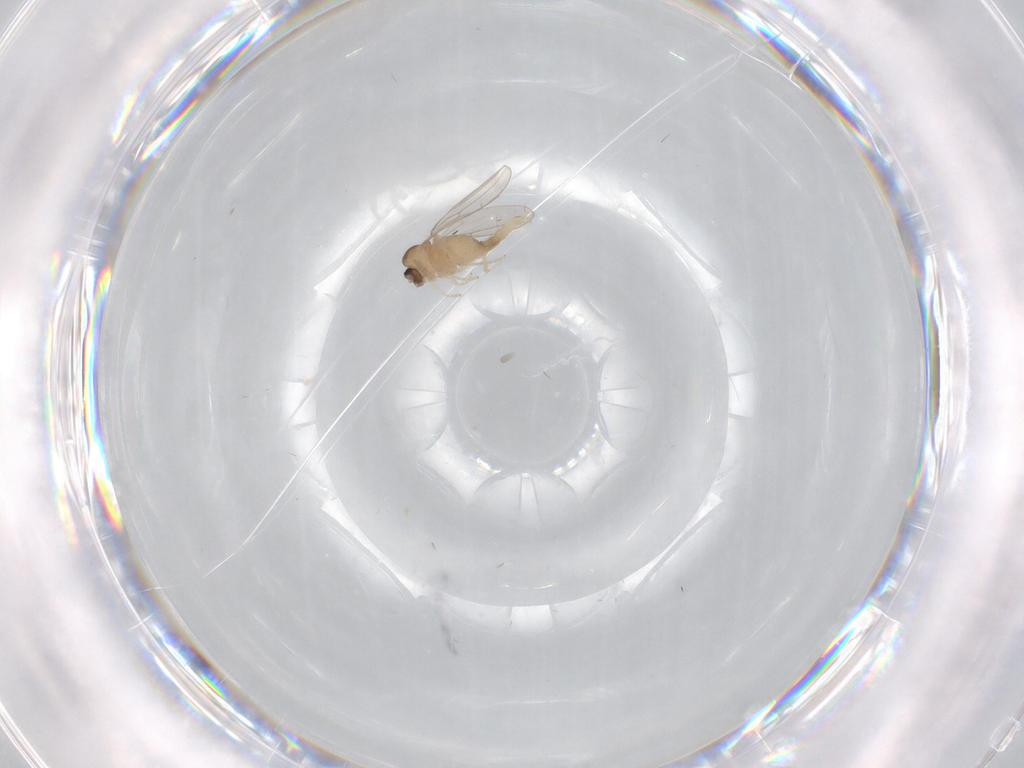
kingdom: Animalia
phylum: Arthropoda
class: Insecta
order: Diptera
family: Cecidomyiidae
